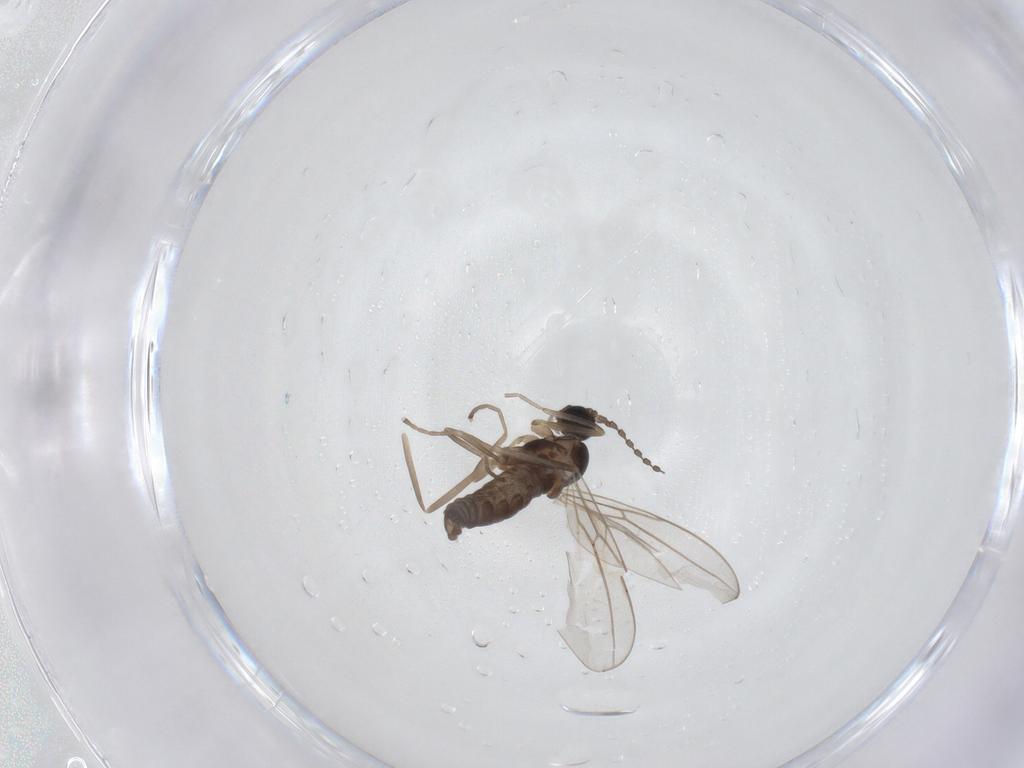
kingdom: Animalia
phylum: Arthropoda
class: Insecta
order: Diptera
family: Cecidomyiidae
